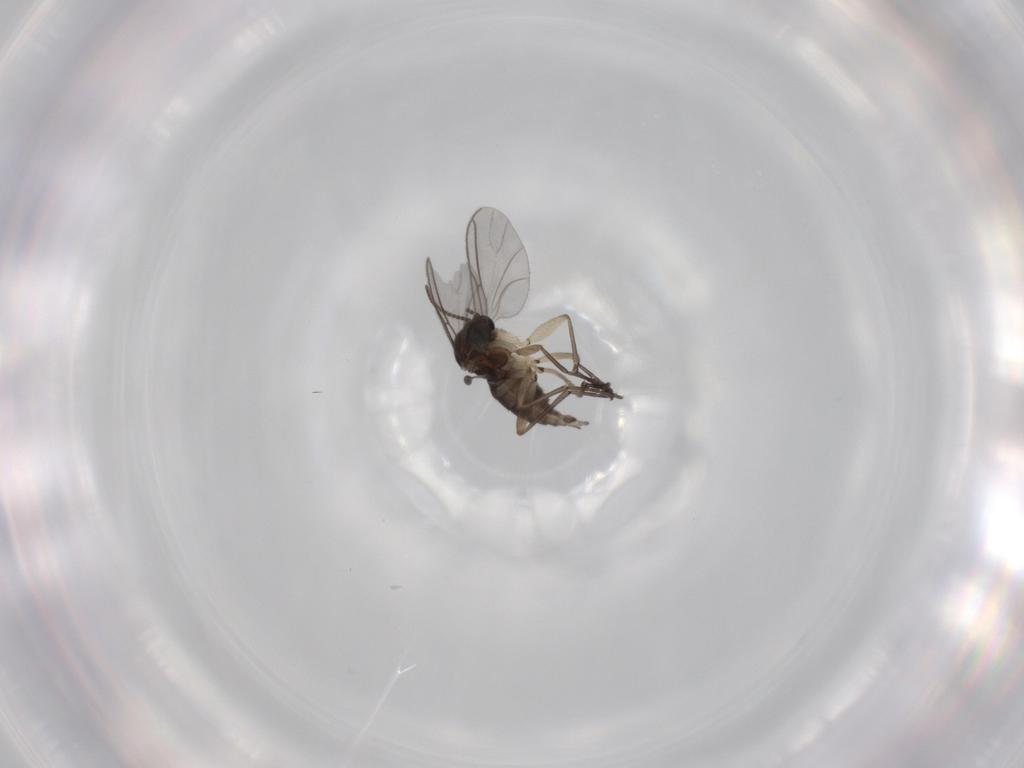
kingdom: Animalia
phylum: Arthropoda
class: Insecta
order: Diptera
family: Sciaridae
